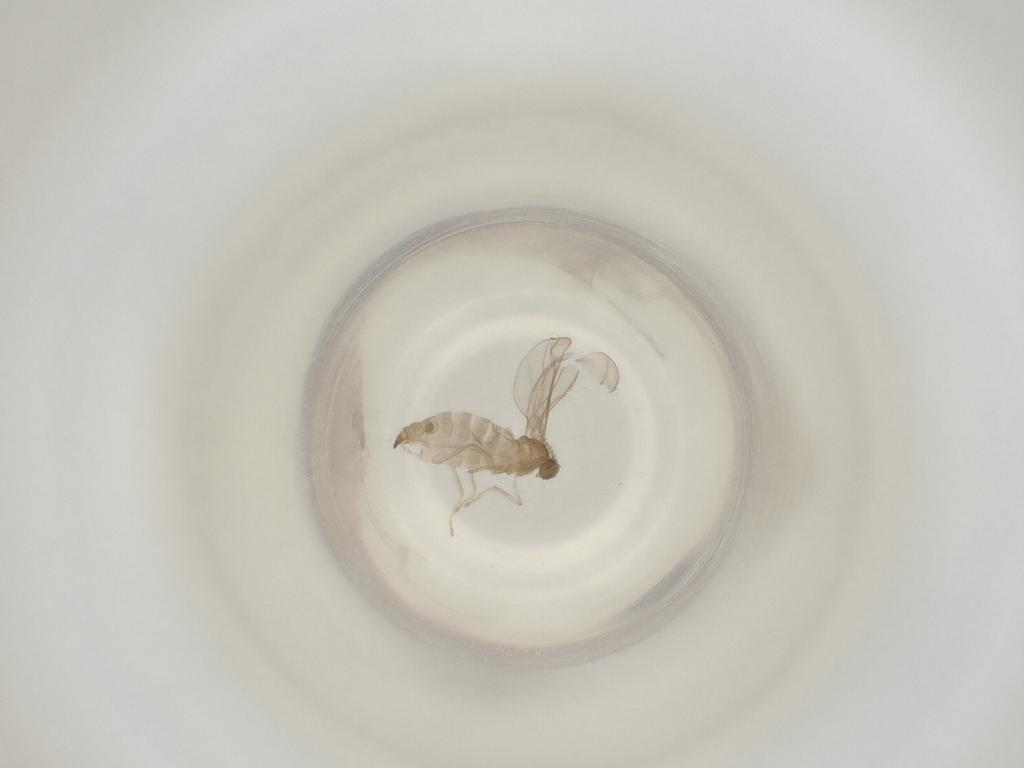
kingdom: Animalia
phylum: Arthropoda
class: Insecta
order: Diptera
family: Cecidomyiidae
